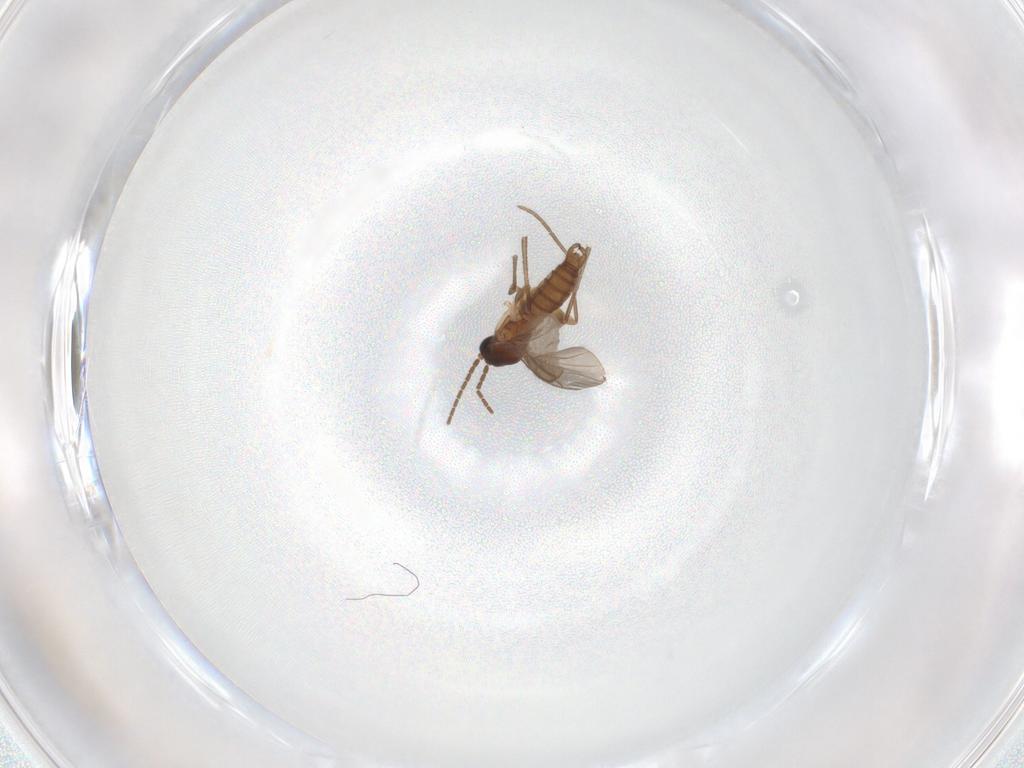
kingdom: Animalia
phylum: Arthropoda
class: Insecta
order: Diptera
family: Sciaridae
